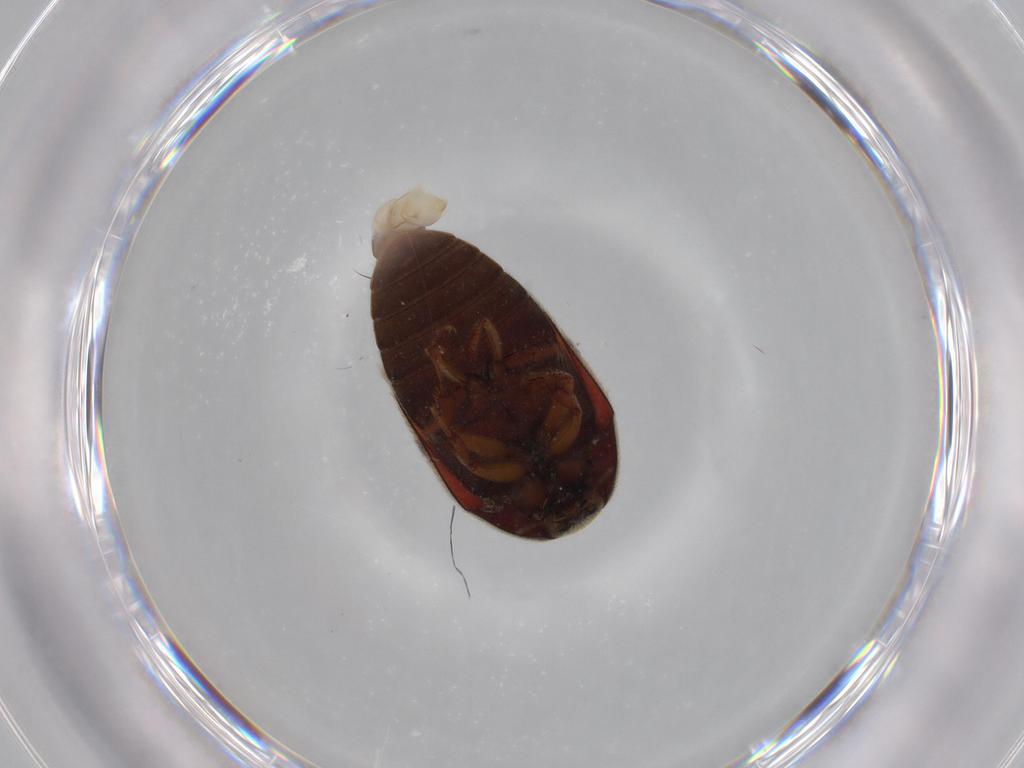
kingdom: Animalia
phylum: Arthropoda
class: Insecta
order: Coleoptera
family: Dermestidae
